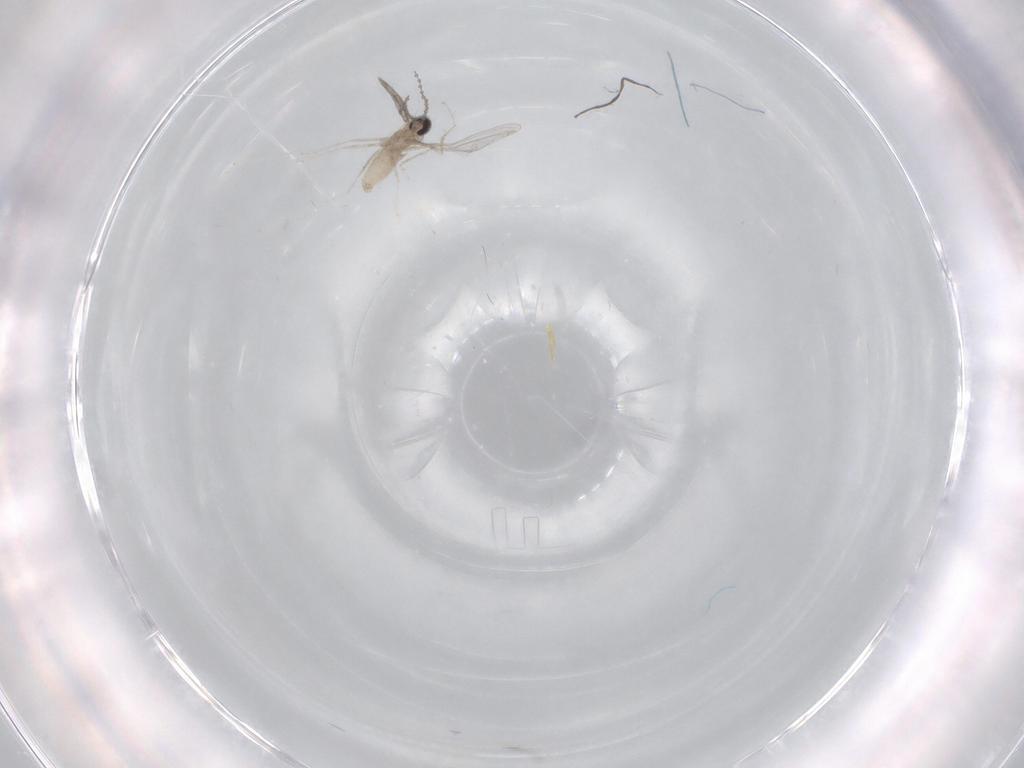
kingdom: Animalia
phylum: Arthropoda
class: Insecta
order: Diptera
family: Cecidomyiidae
